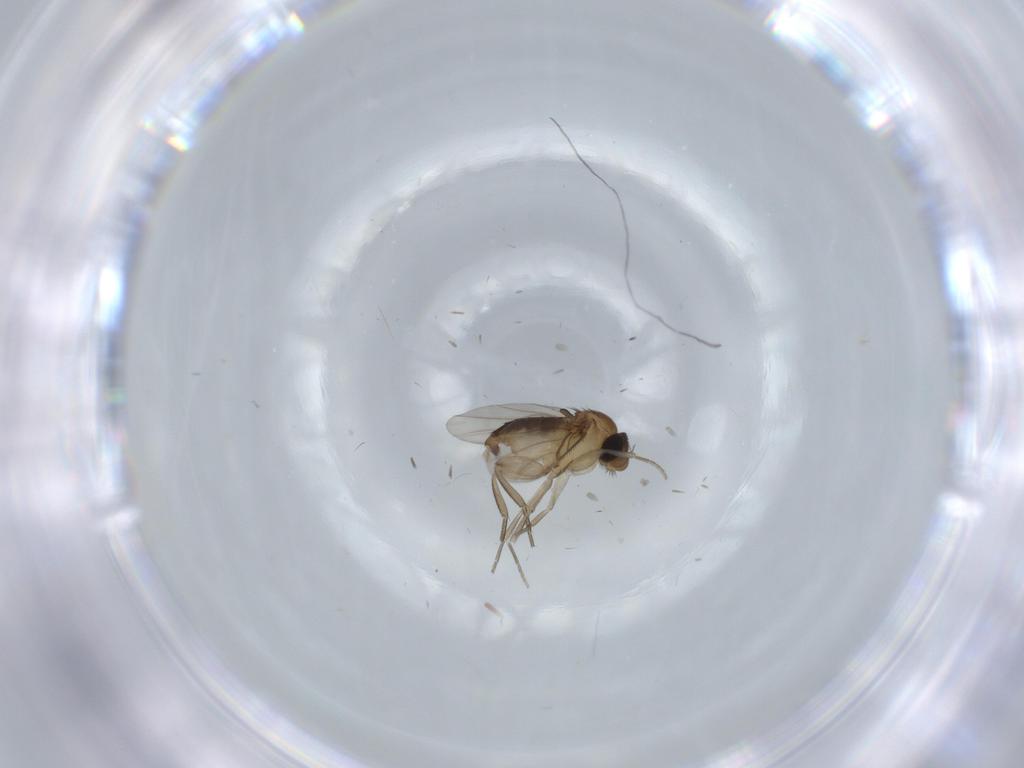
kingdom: Animalia
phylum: Arthropoda
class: Insecta
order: Diptera
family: Phoridae
